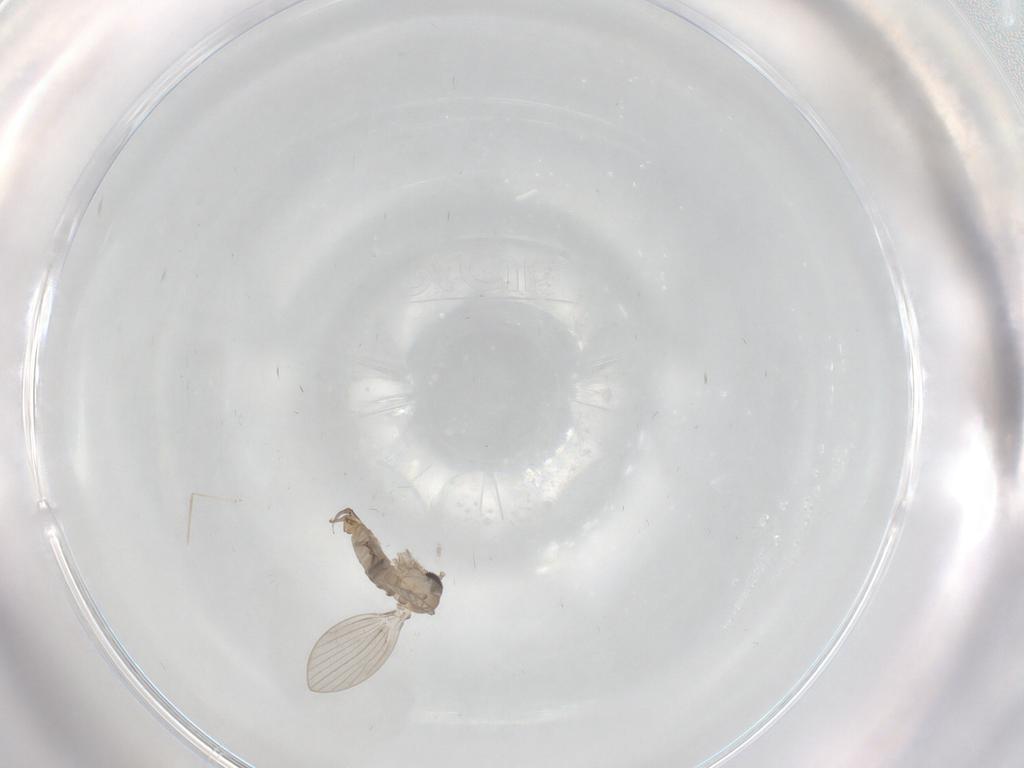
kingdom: Animalia
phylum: Arthropoda
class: Insecta
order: Diptera
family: Psychodidae
